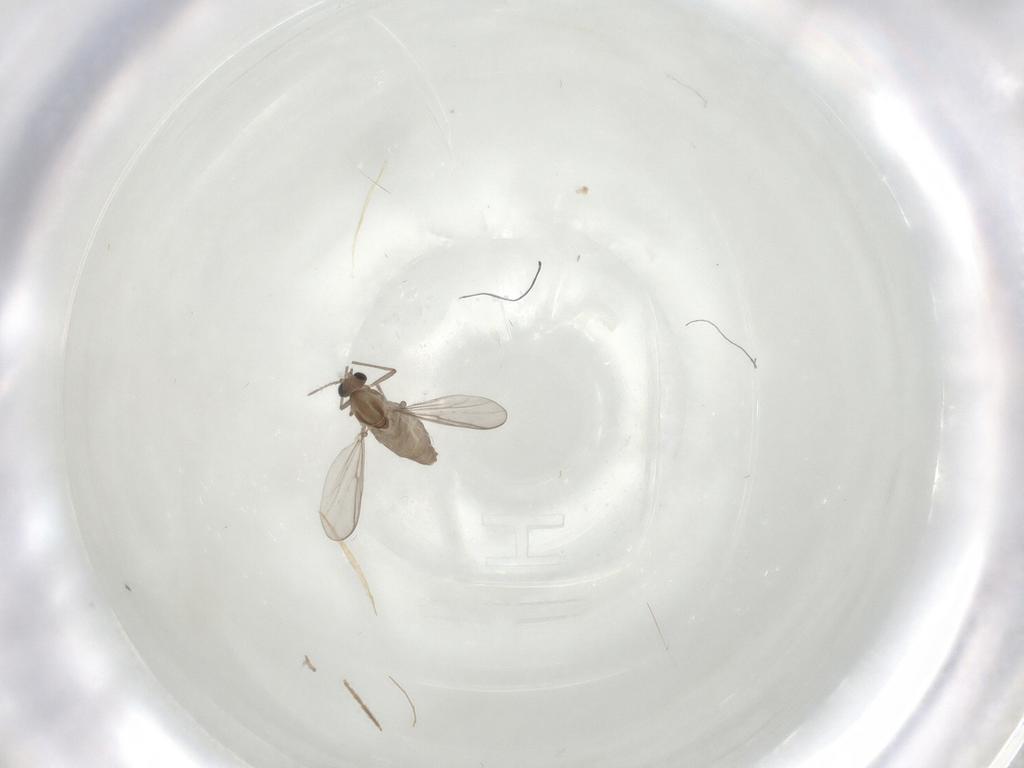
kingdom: Animalia
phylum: Arthropoda
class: Insecta
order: Diptera
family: Chironomidae
